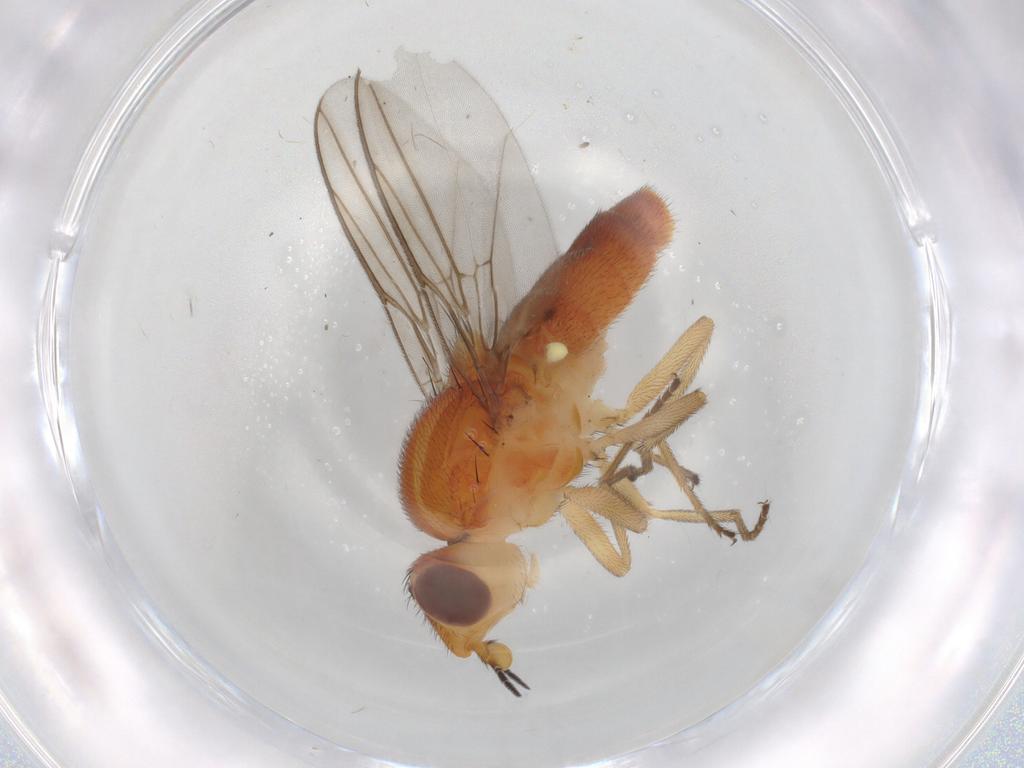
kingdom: Animalia
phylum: Arthropoda
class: Insecta
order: Diptera
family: Chloropidae
